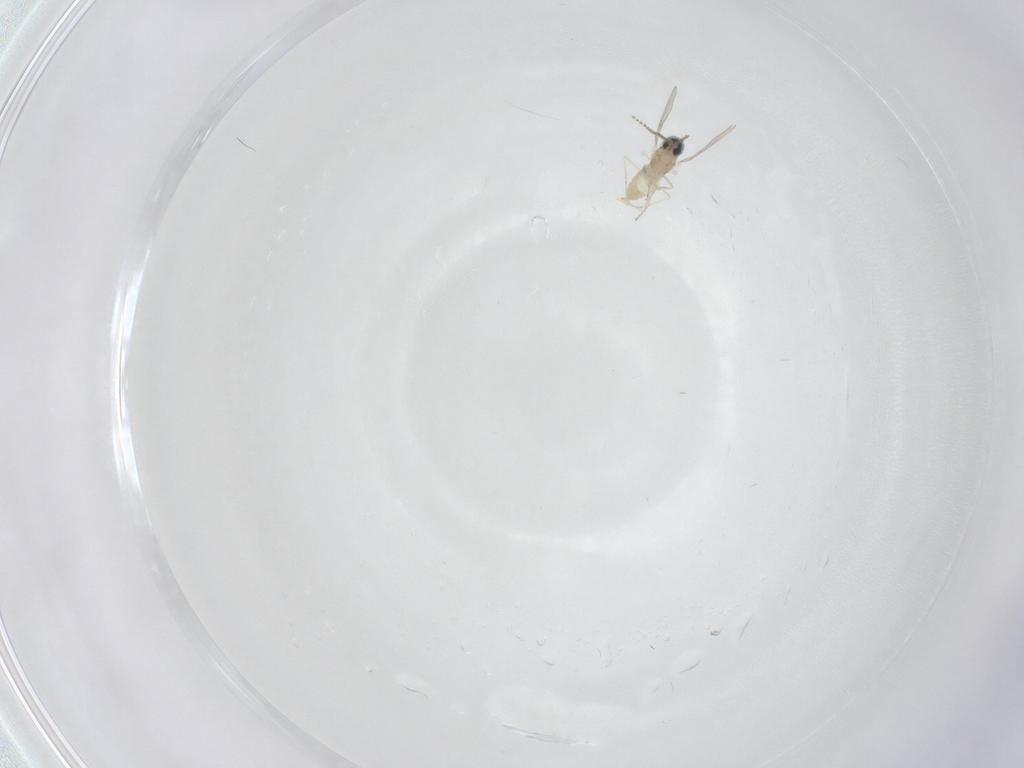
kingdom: Animalia
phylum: Arthropoda
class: Insecta
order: Diptera
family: Cecidomyiidae
